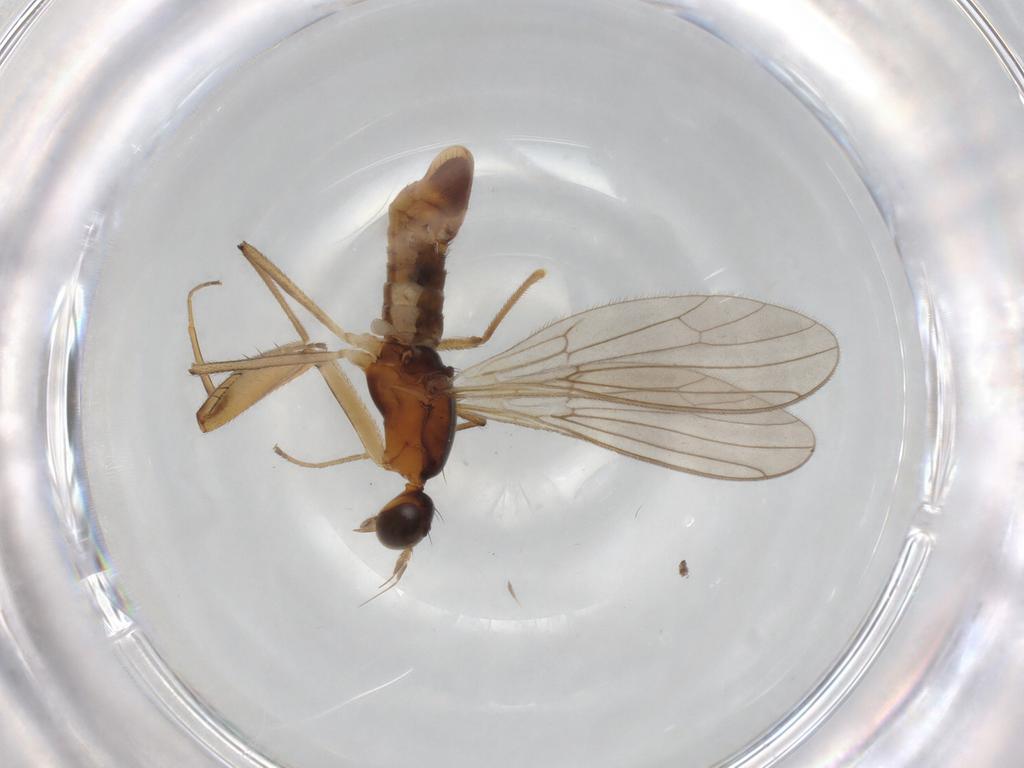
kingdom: Animalia
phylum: Arthropoda
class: Insecta
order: Diptera
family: Empididae
